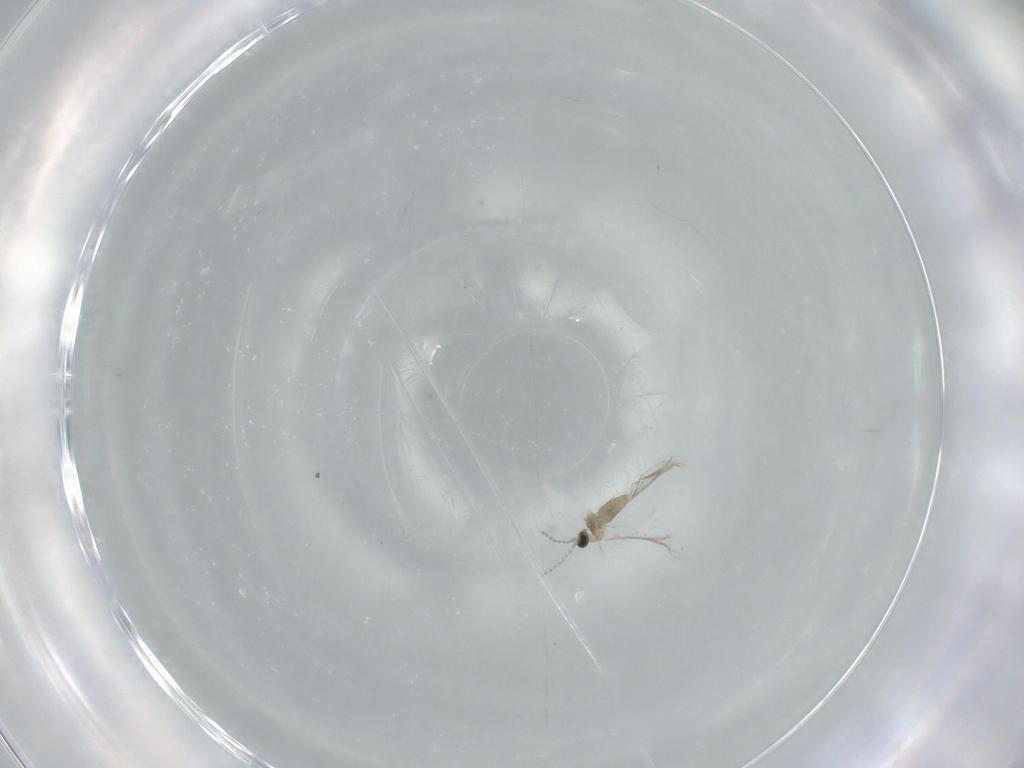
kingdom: Animalia
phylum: Arthropoda
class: Insecta
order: Diptera
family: Cecidomyiidae
